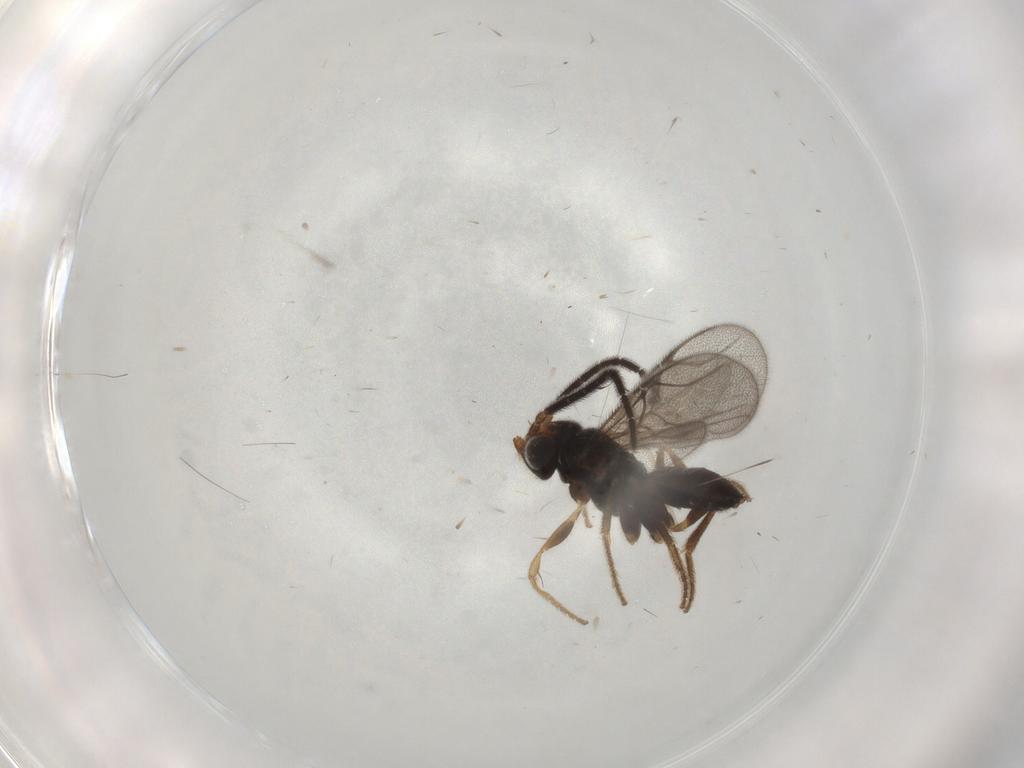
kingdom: Animalia
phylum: Arthropoda
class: Insecta
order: Hymenoptera
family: Dryinidae
